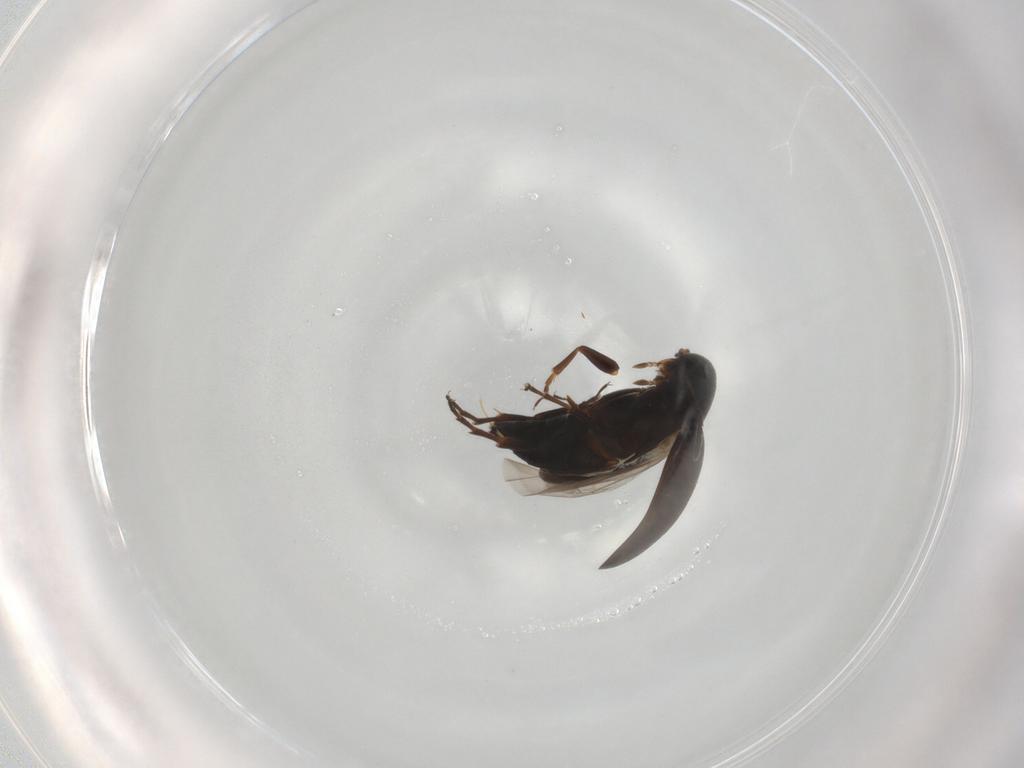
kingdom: Animalia
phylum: Arthropoda
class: Insecta
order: Coleoptera
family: Scraptiidae
